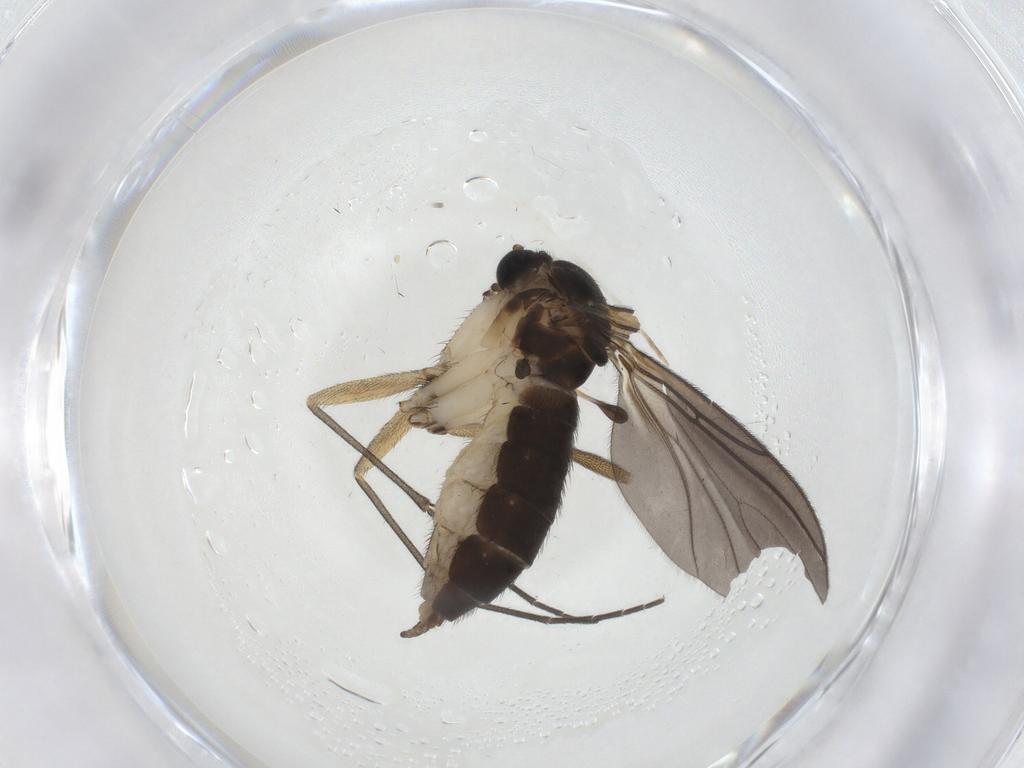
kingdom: Animalia
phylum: Arthropoda
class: Insecta
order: Diptera
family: Sciaridae
